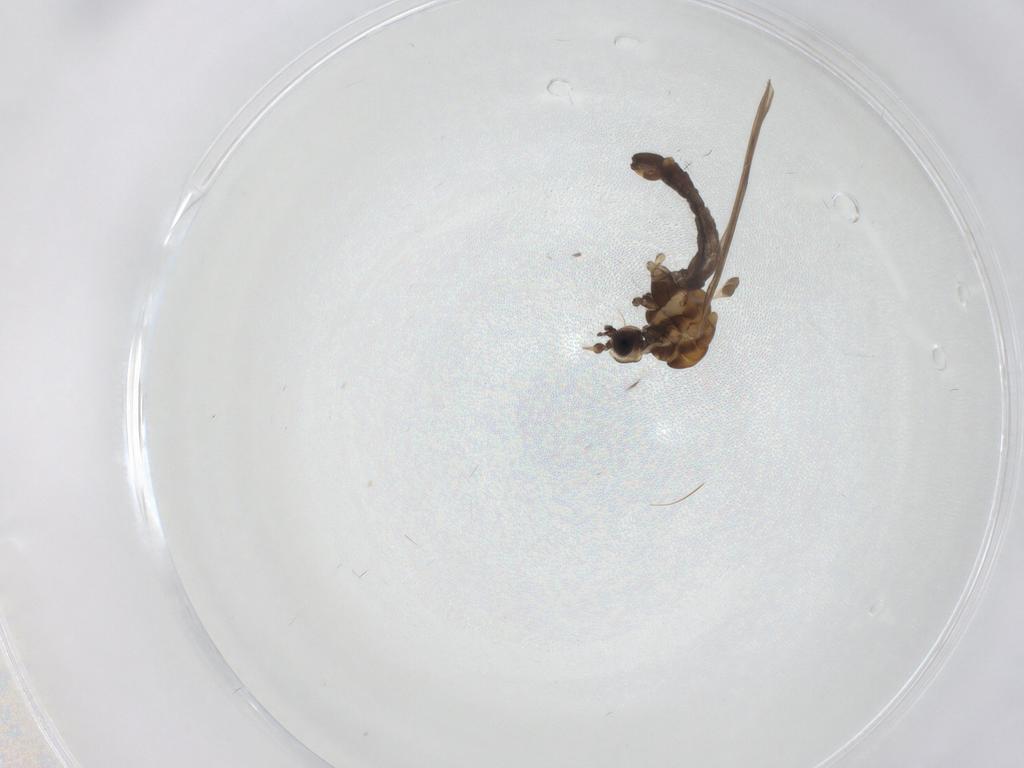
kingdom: Animalia
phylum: Arthropoda
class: Insecta
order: Diptera
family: Limoniidae
